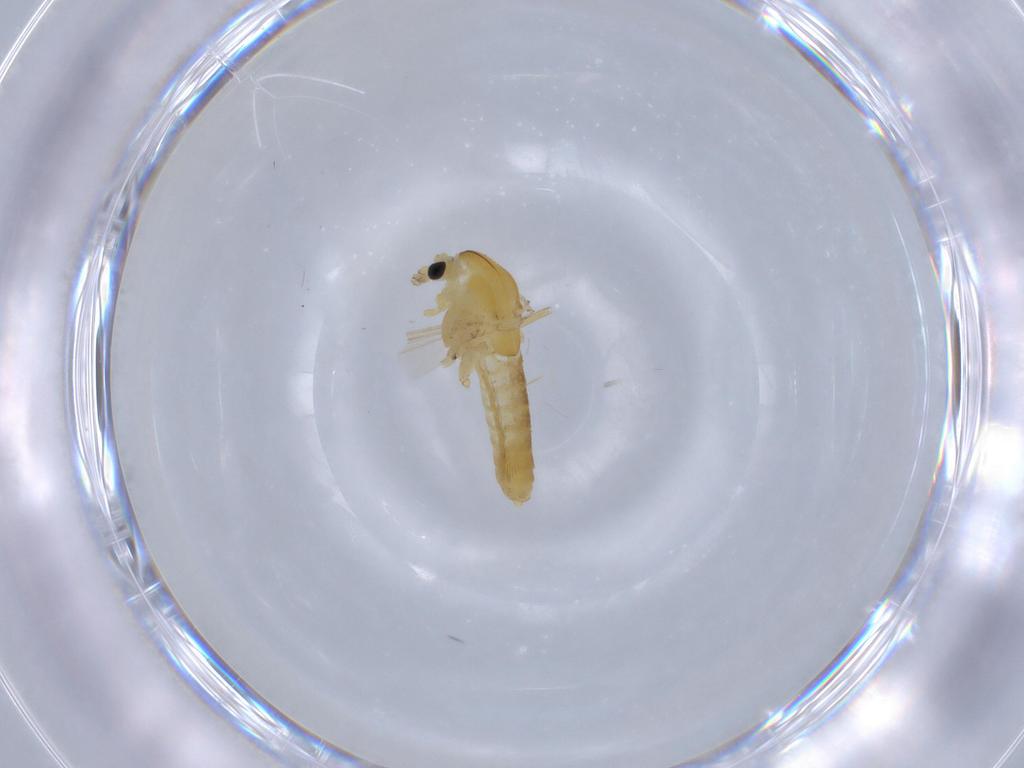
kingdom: Animalia
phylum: Arthropoda
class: Insecta
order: Diptera
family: Chironomidae
